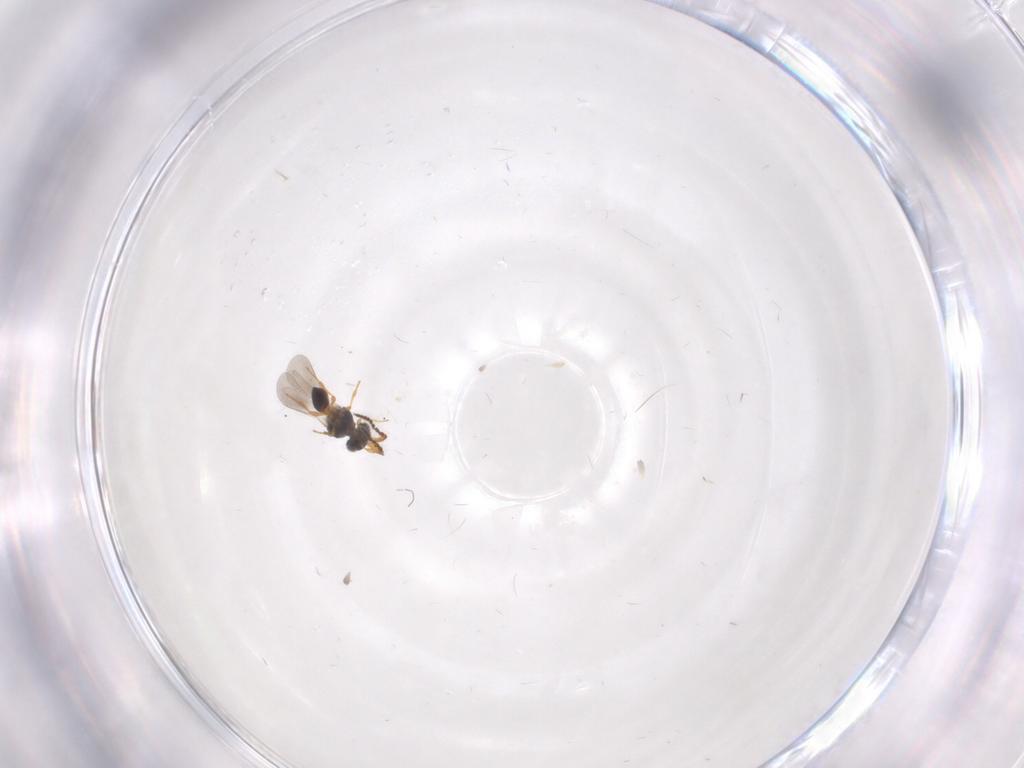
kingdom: Animalia
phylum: Arthropoda
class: Insecta
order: Hymenoptera
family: Platygastridae
